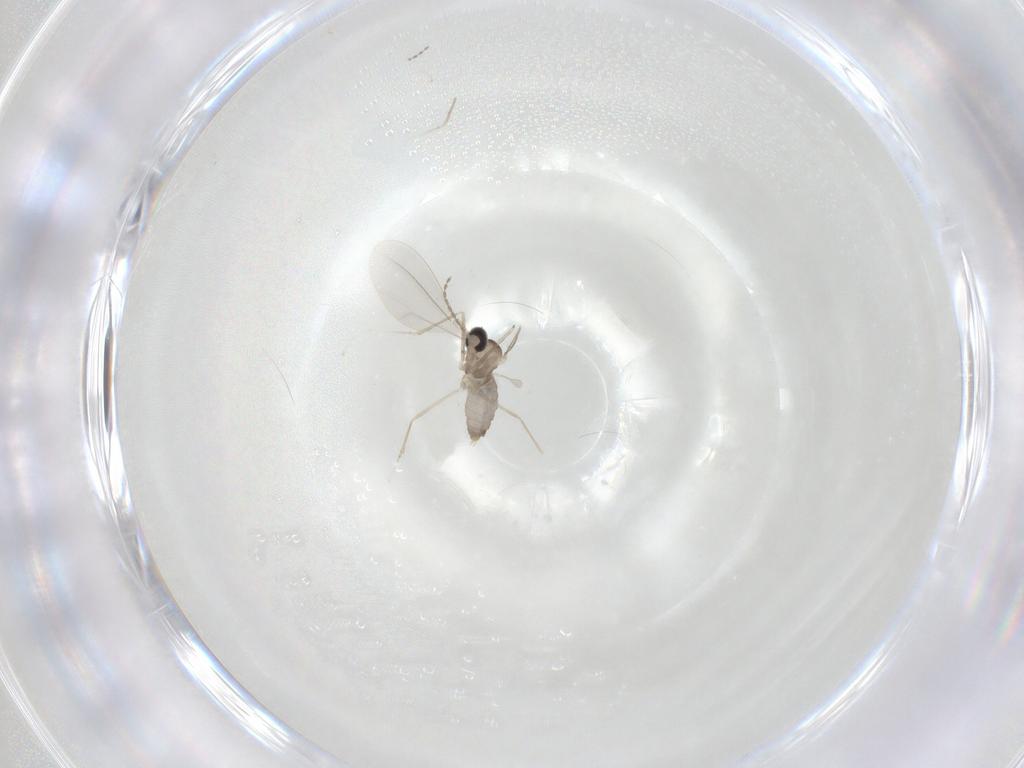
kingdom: Animalia
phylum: Arthropoda
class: Insecta
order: Diptera
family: Cecidomyiidae
